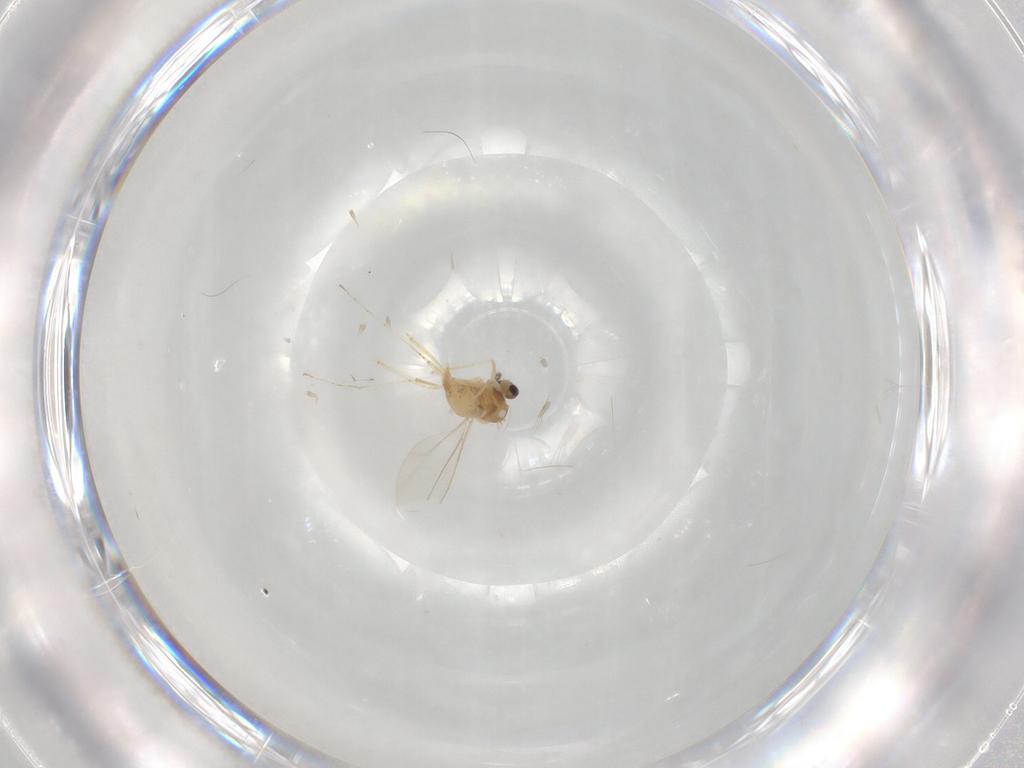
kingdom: Animalia
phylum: Arthropoda
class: Insecta
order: Diptera
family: Cecidomyiidae
